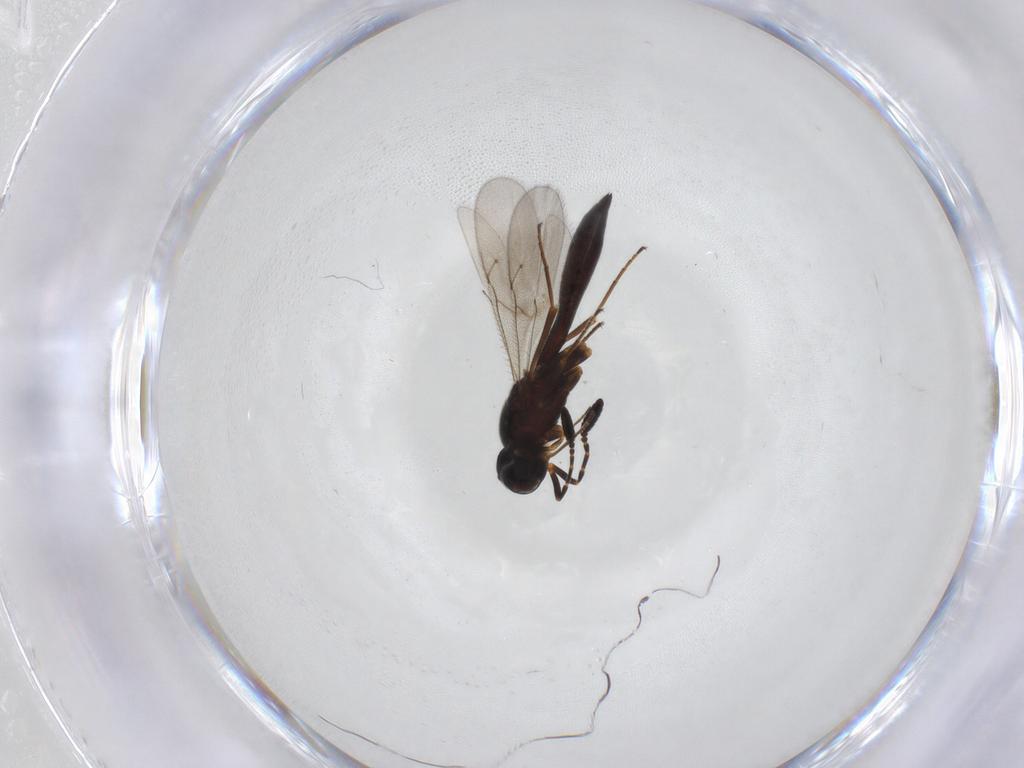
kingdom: Animalia
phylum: Arthropoda
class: Insecta
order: Hymenoptera
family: Scelionidae
